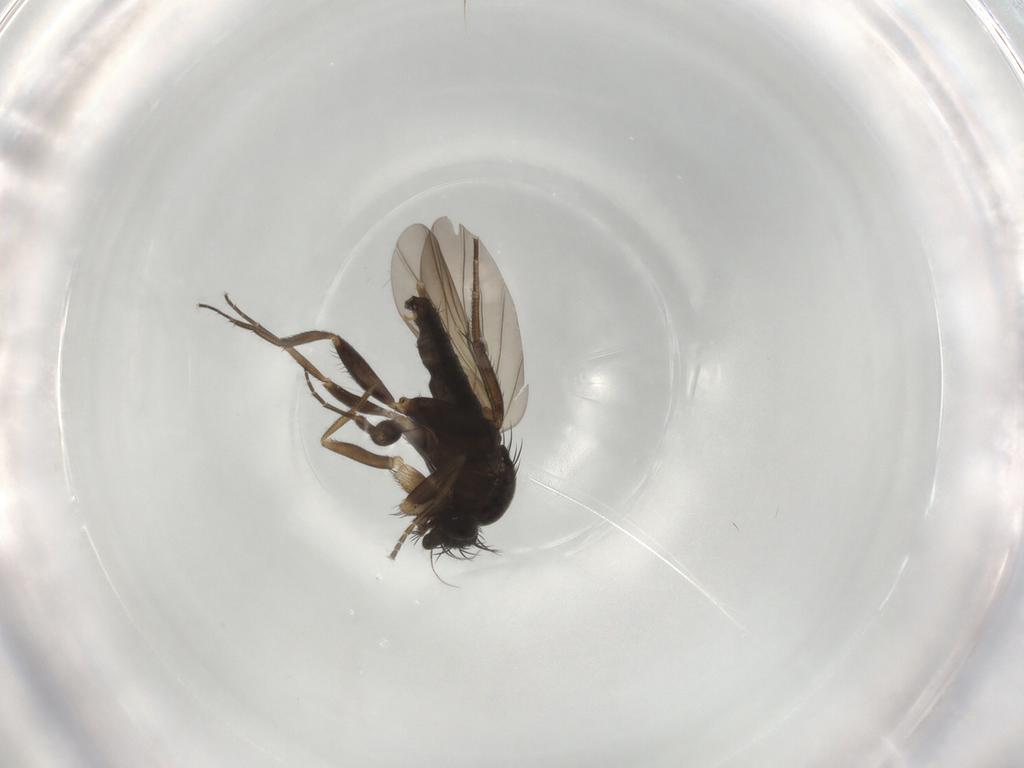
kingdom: Animalia
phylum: Arthropoda
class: Insecta
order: Diptera
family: Phoridae
